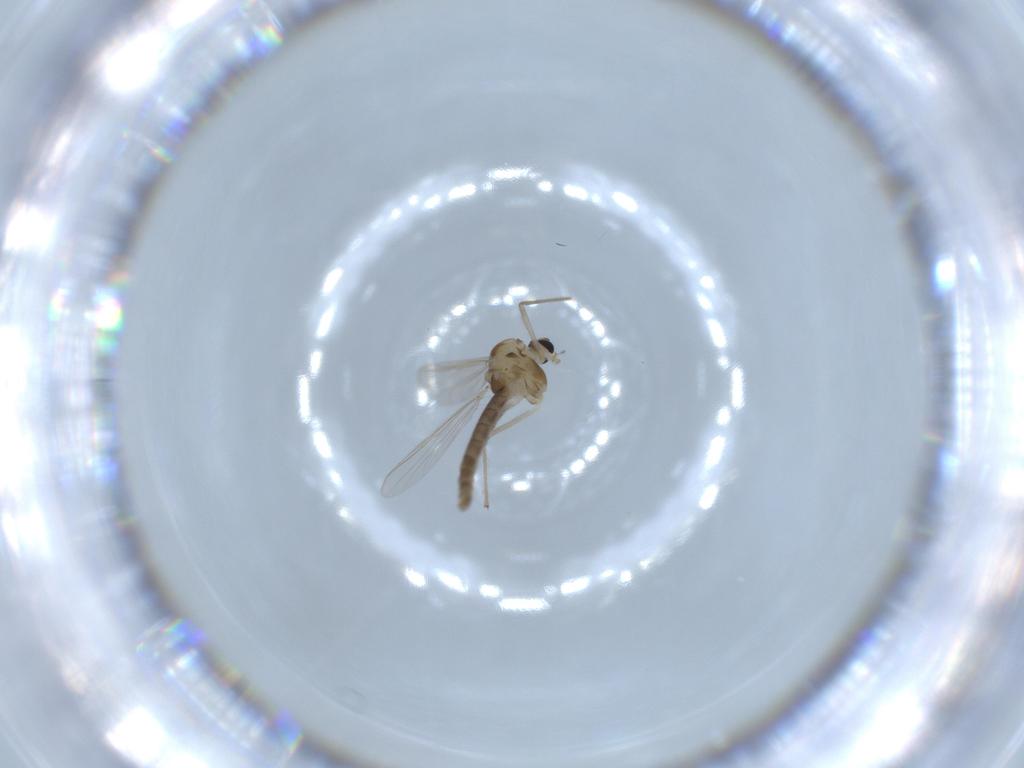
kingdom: Animalia
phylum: Arthropoda
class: Insecta
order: Diptera
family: Chironomidae
